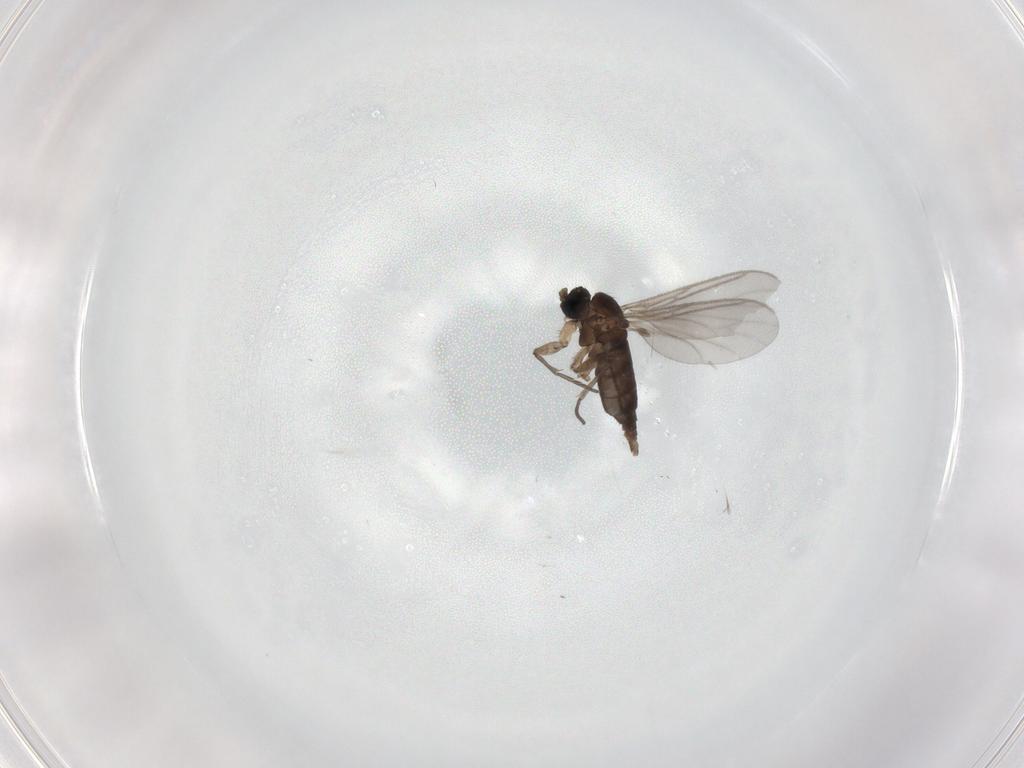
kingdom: Animalia
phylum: Arthropoda
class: Insecta
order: Diptera
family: Sciaridae
